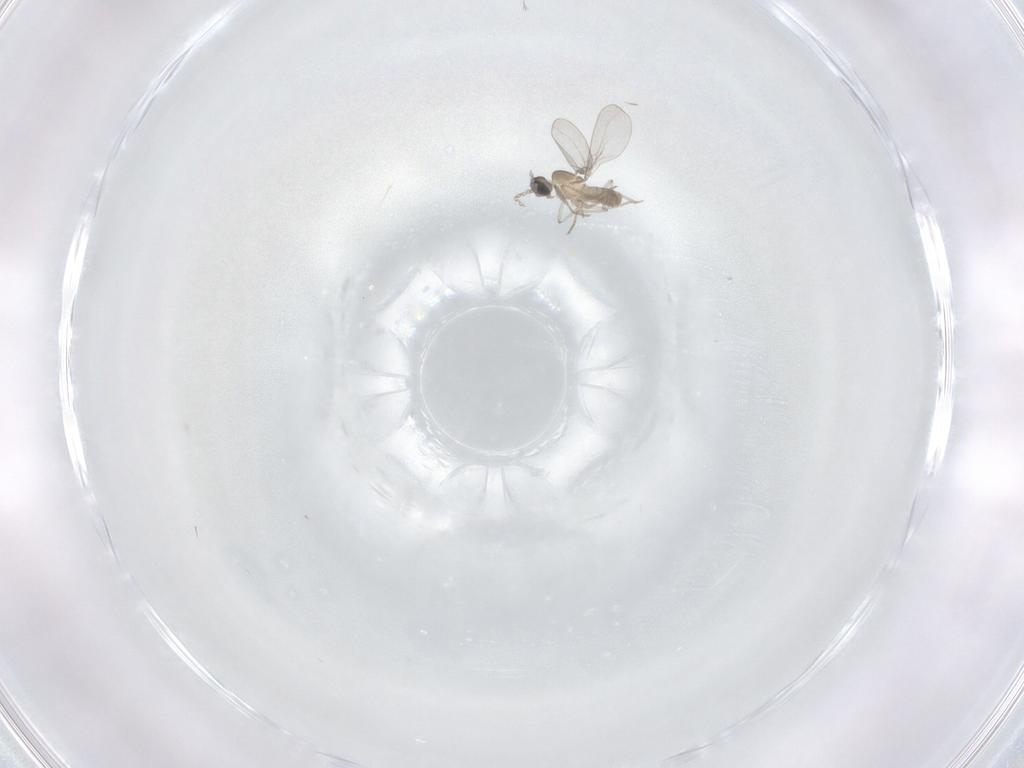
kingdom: Animalia
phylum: Arthropoda
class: Insecta
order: Diptera
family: Cecidomyiidae
